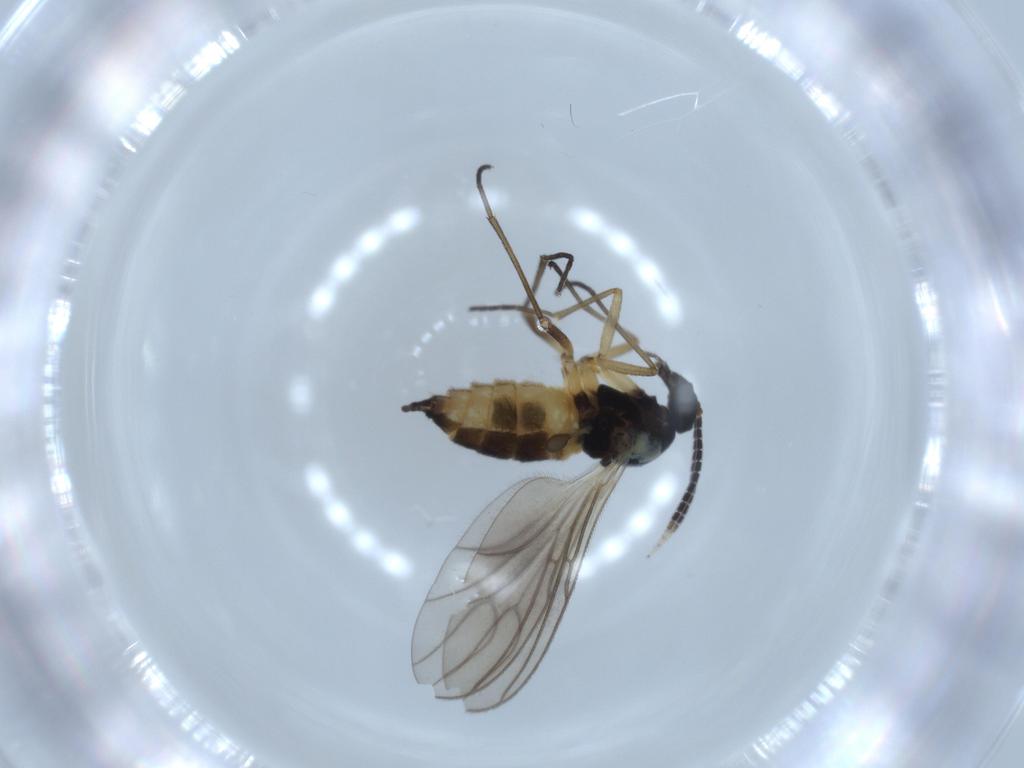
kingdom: Animalia
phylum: Arthropoda
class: Insecta
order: Diptera
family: Sciaridae
